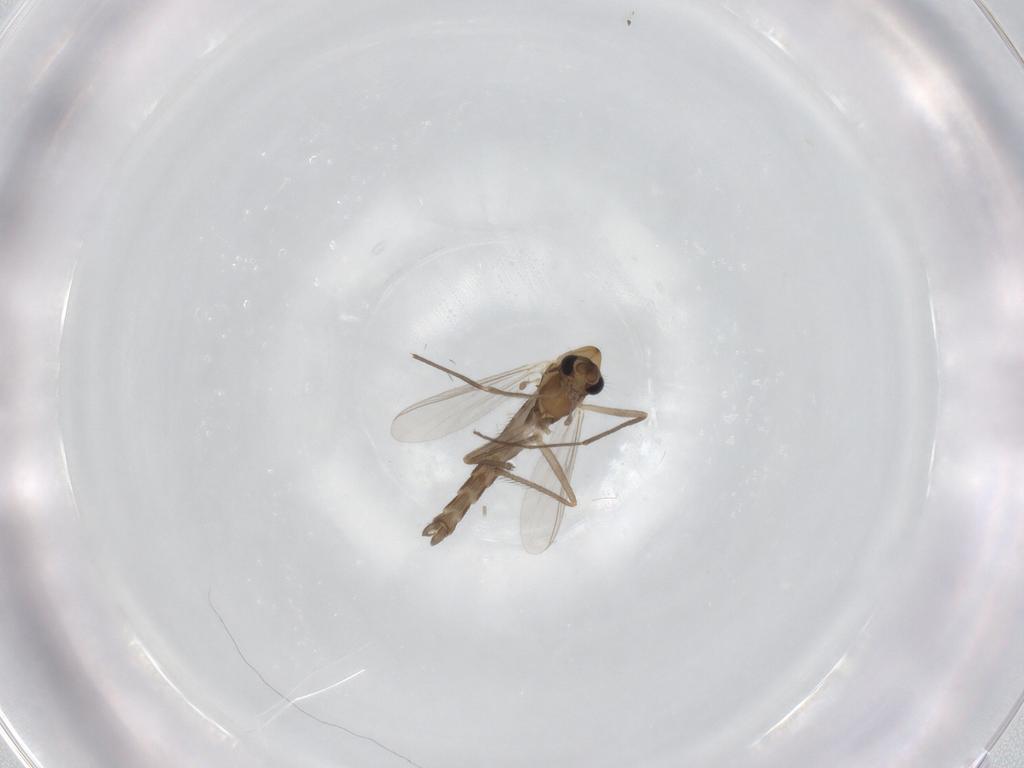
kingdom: Animalia
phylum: Arthropoda
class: Insecta
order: Diptera
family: Chironomidae
